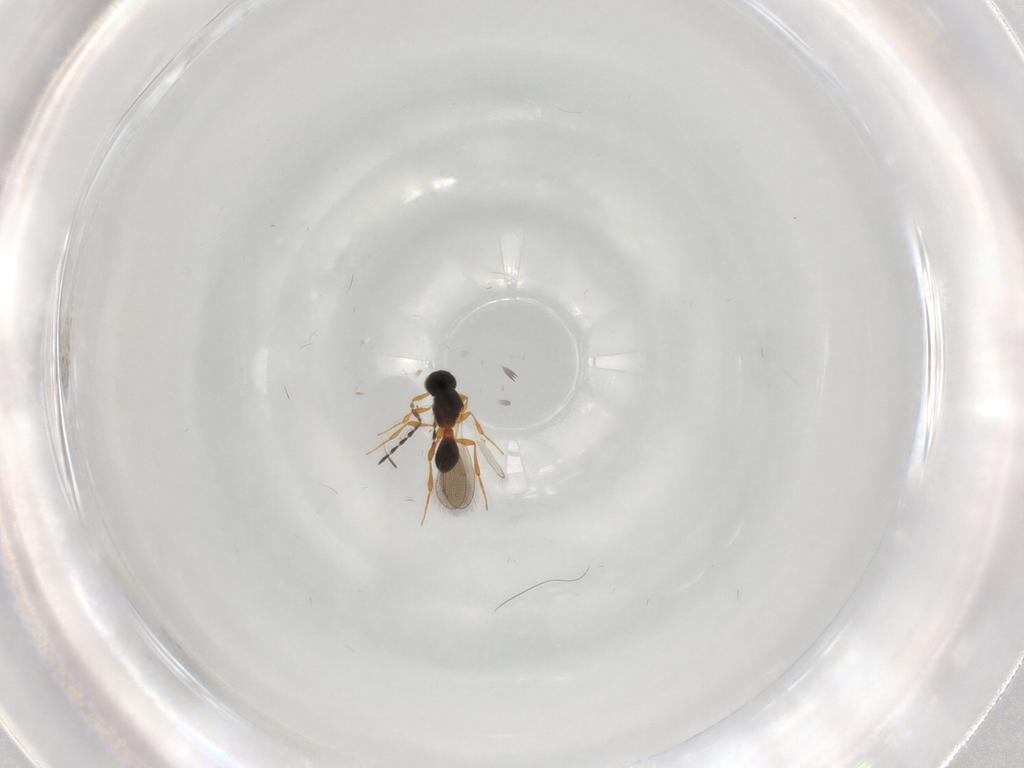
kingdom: Animalia
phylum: Arthropoda
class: Insecta
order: Hymenoptera
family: Platygastridae
